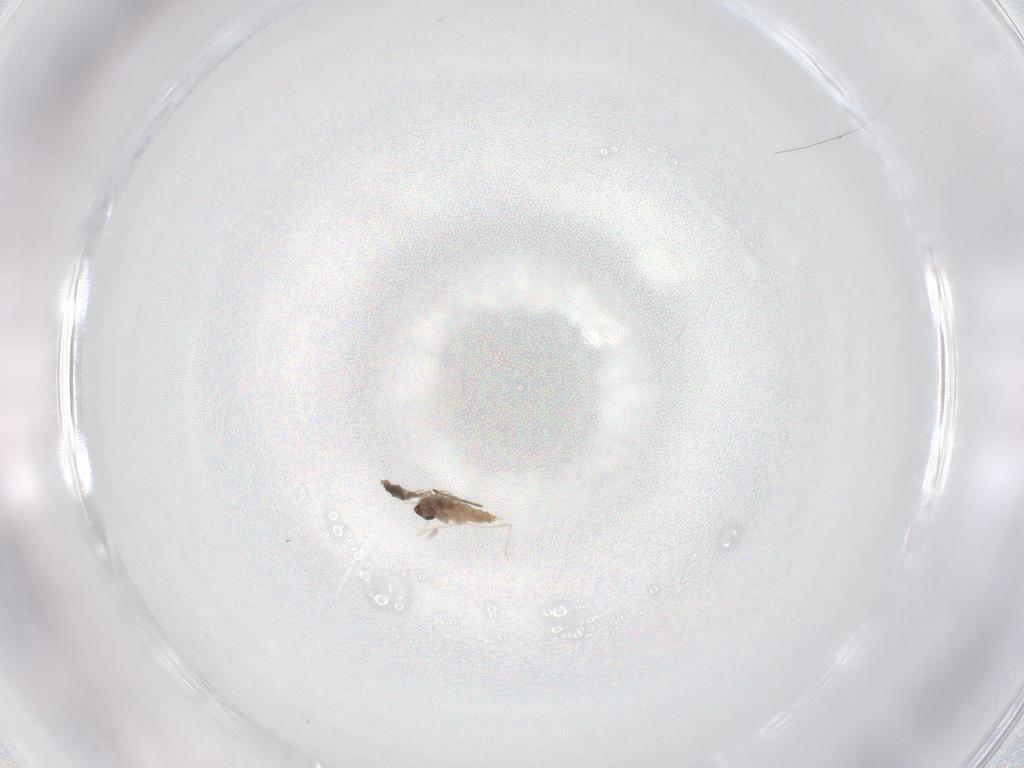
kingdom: Animalia
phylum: Arthropoda
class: Insecta
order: Diptera
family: Cecidomyiidae
